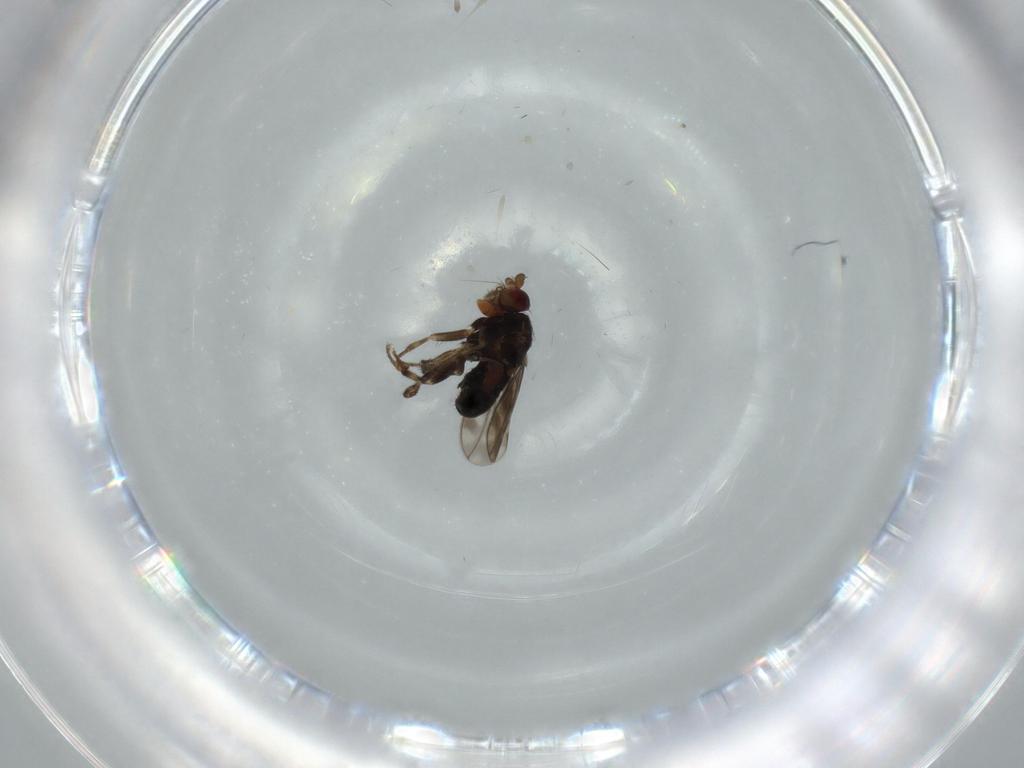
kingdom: Animalia
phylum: Arthropoda
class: Insecta
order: Diptera
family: Sphaeroceridae
